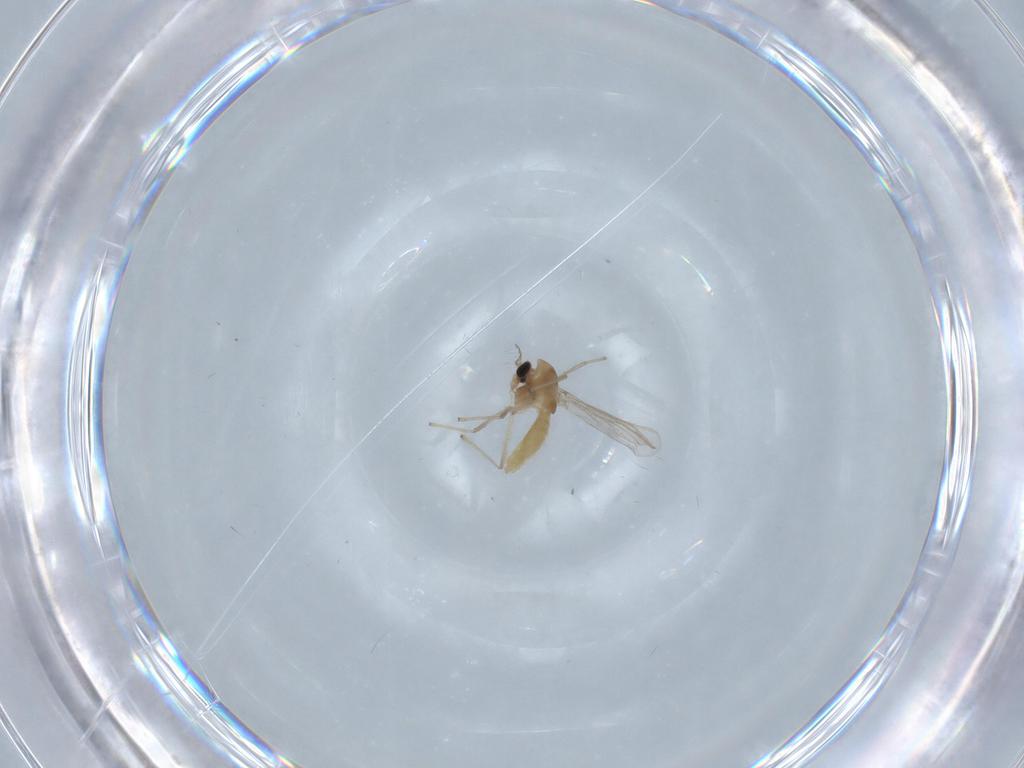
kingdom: Animalia
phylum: Arthropoda
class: Insecta
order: Diptera
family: Chironomidae
